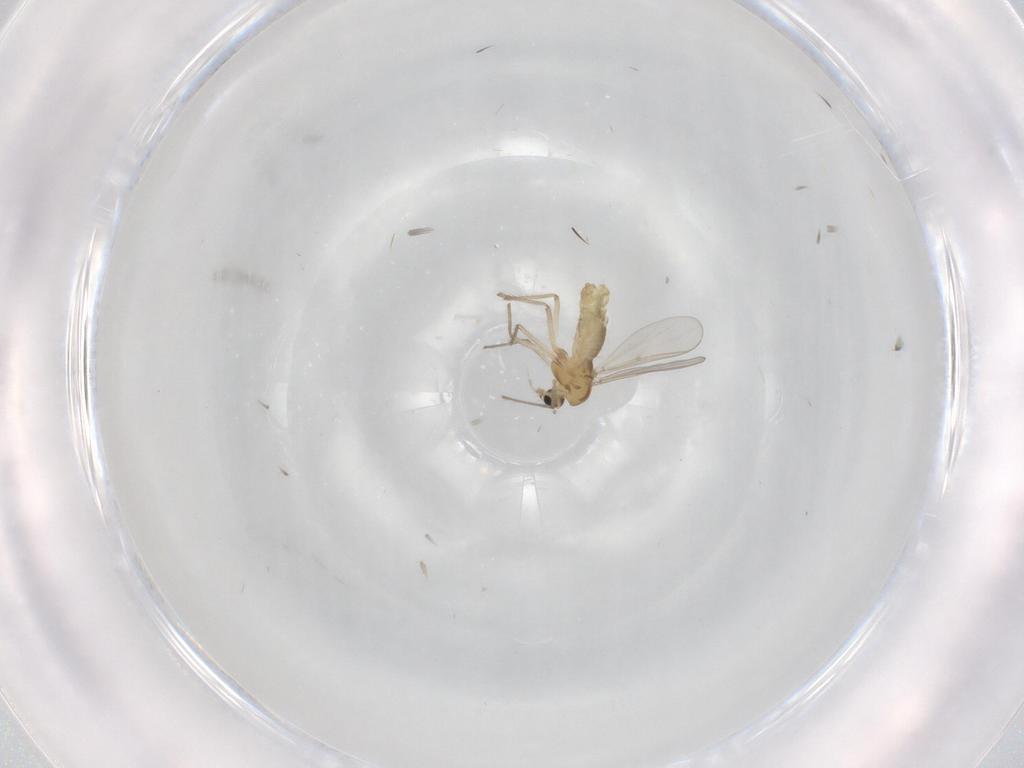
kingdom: Animalia
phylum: Arthropoda
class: Insecta
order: Diptera
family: Chironomidae
